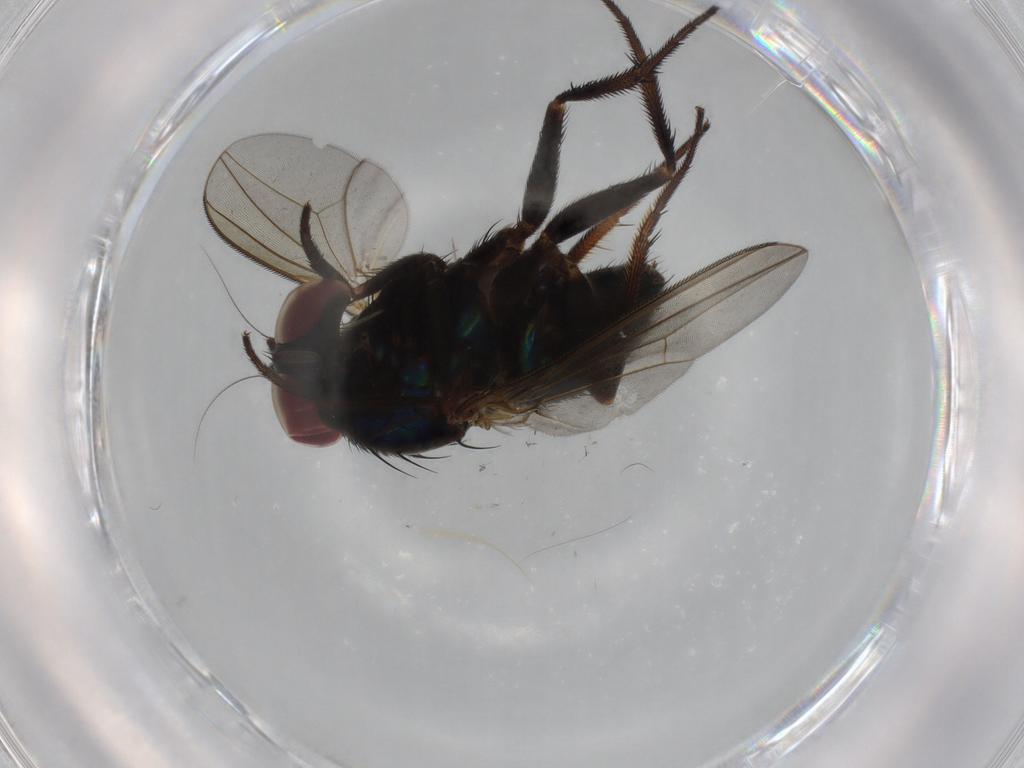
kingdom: Animalia
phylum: Arthropoda
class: Insecta
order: Diptera
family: Dolichopodidae
